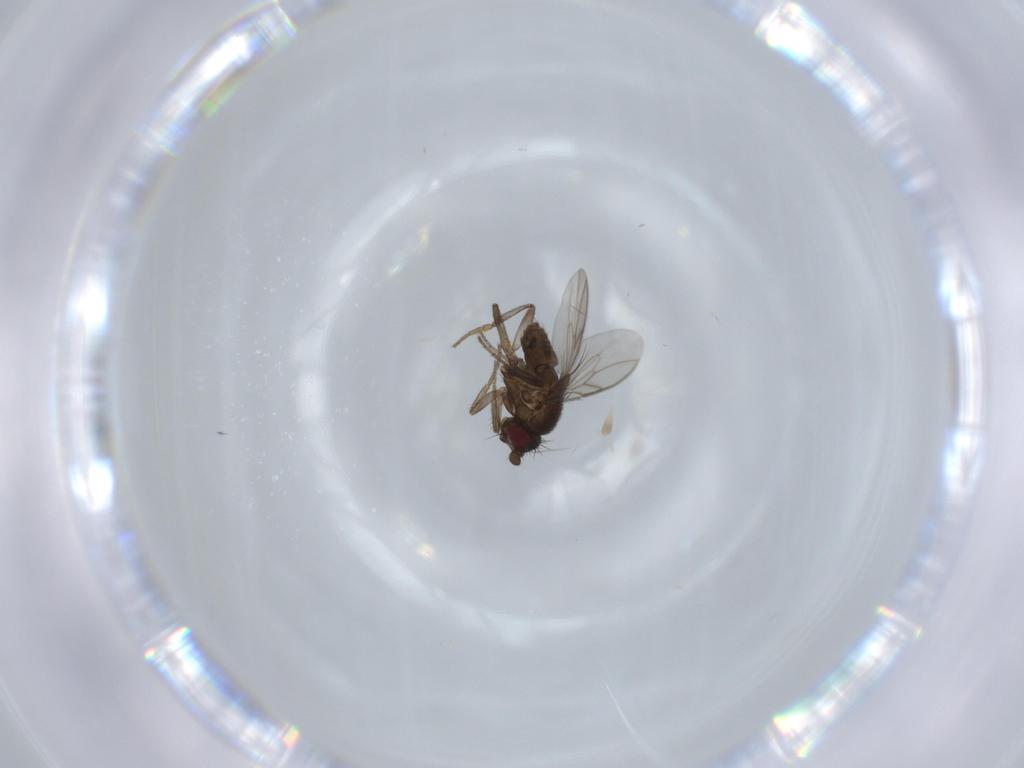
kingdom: Animalia
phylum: Arthropoda
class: Insecta
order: Diptera
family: Sphaeroceridae
